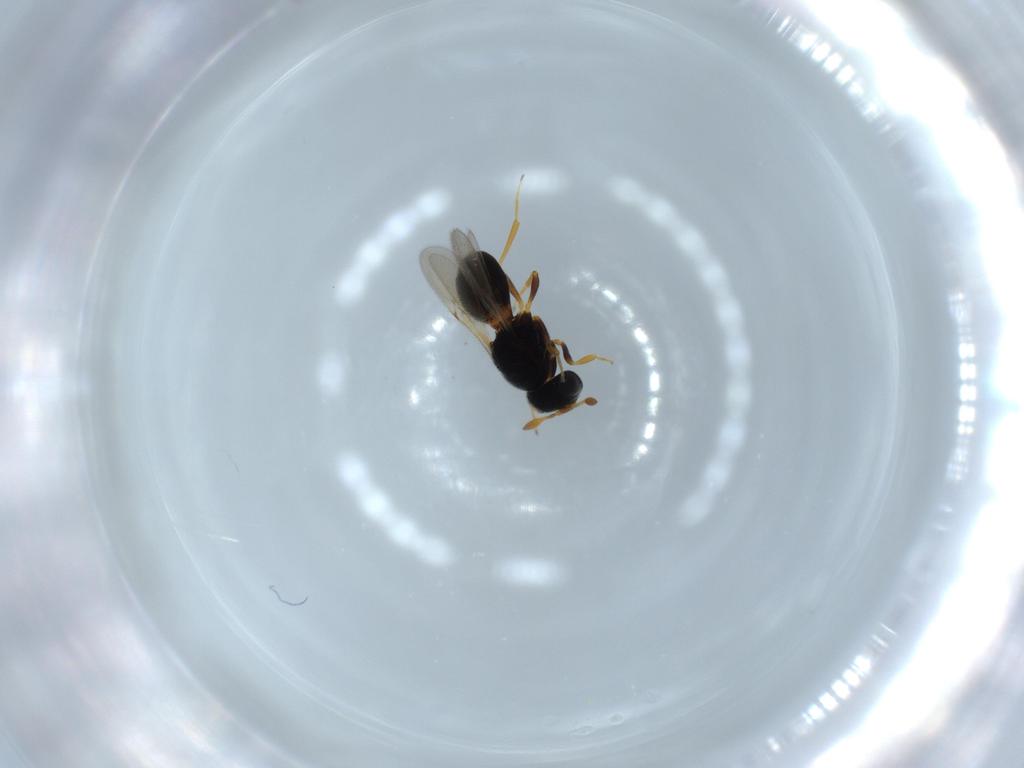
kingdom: Animalia
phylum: Arthropoda
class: Insecta
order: Hymenoptera
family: Scelionidae
